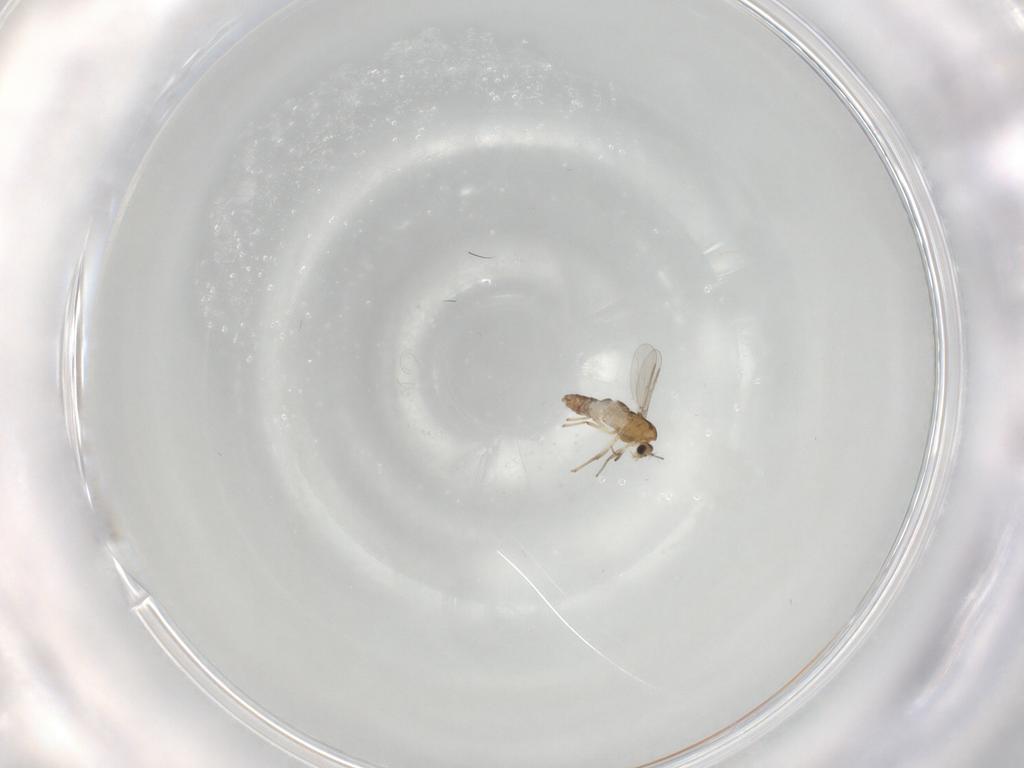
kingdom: Animalia
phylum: Arthropoda
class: Insecta
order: Diptera
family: Chironomidae
